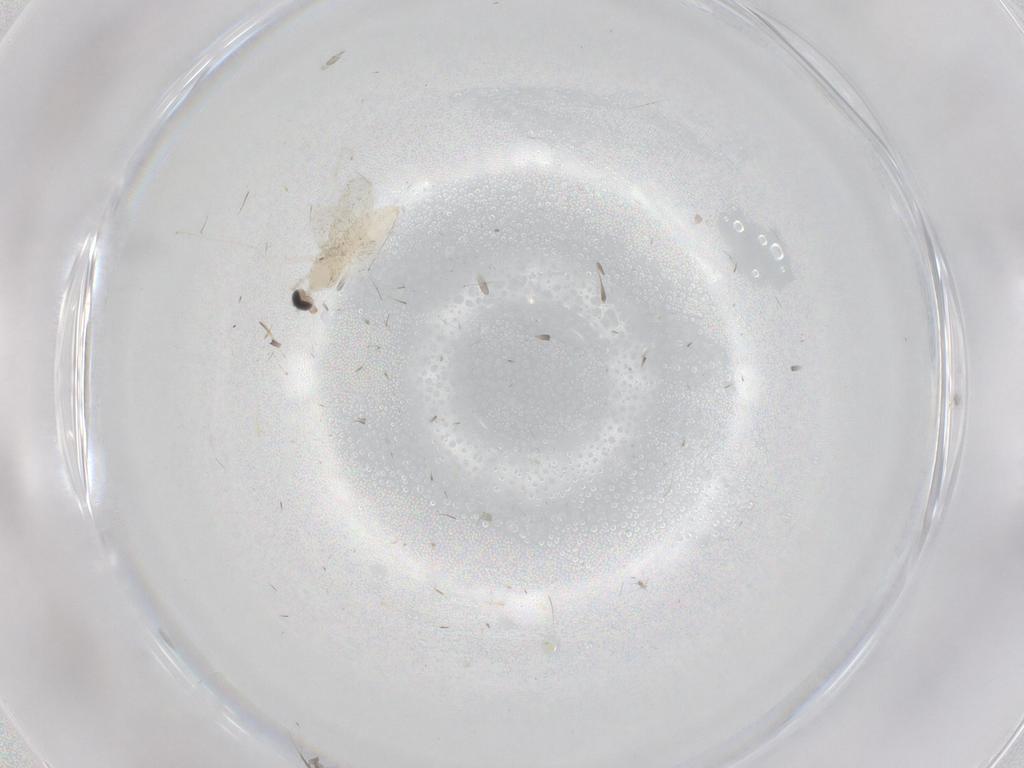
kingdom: Animalia
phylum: Arthropoda
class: Insecta
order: Diptera
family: Cecidomyiidae
